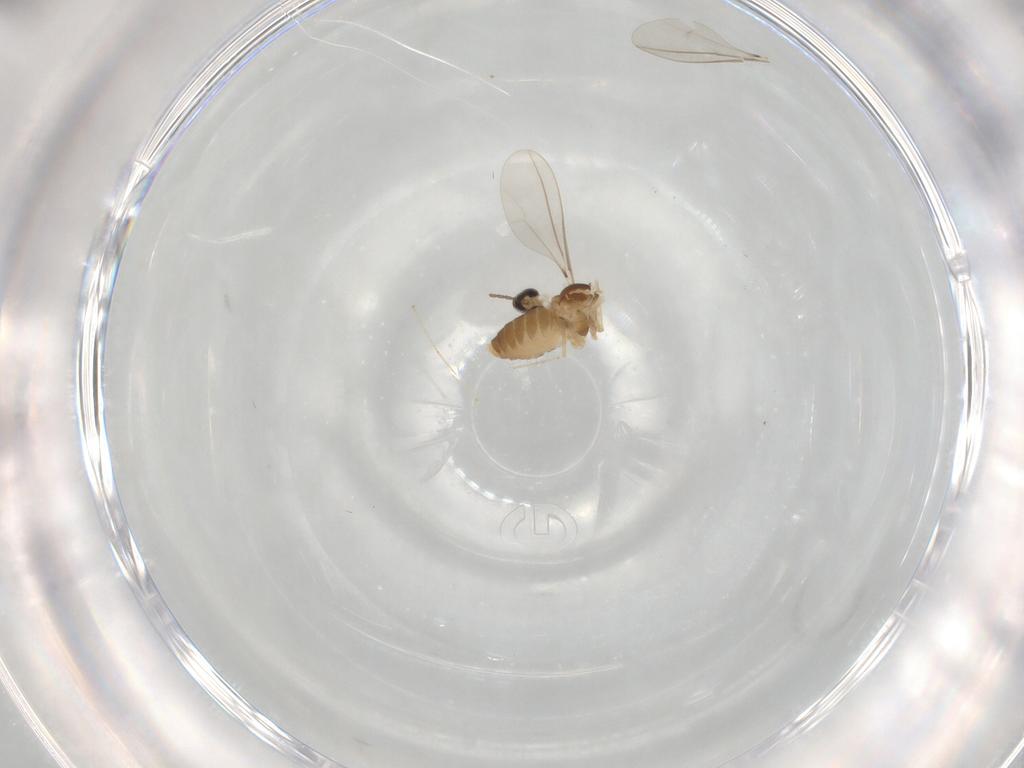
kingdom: Animalia
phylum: Arthropoda
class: Insecta
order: Diptera
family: Cecidomyiidae
